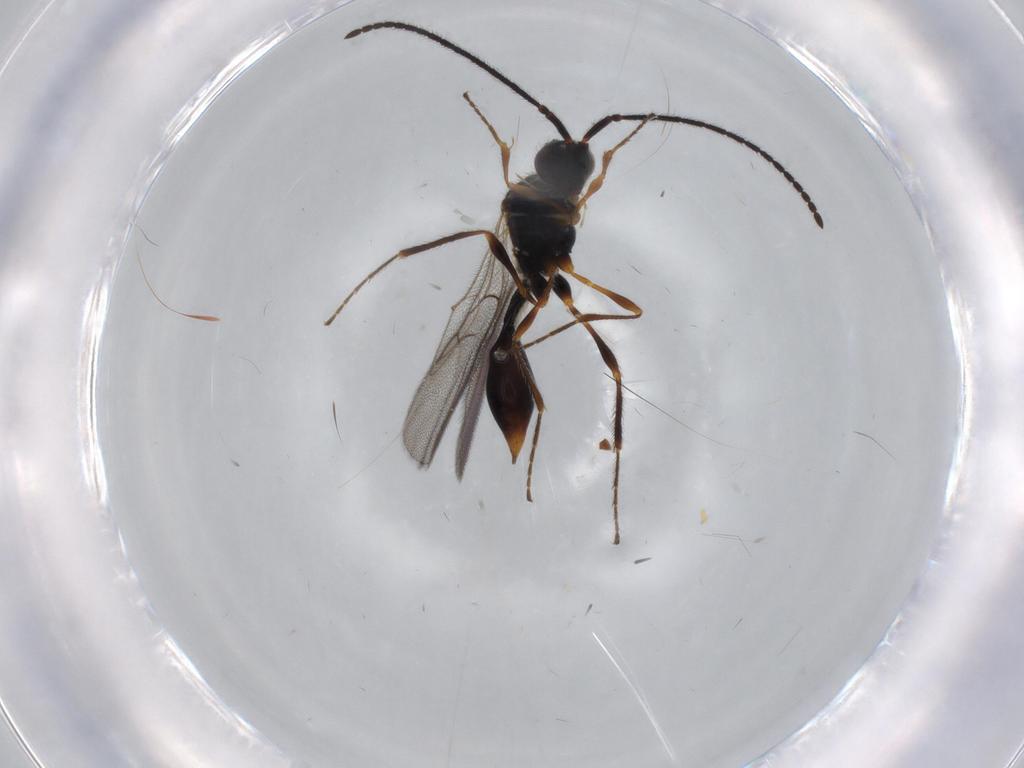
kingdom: Animalia
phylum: Arthropoda
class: Insecta
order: Hymenoptera
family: Diapriidae
